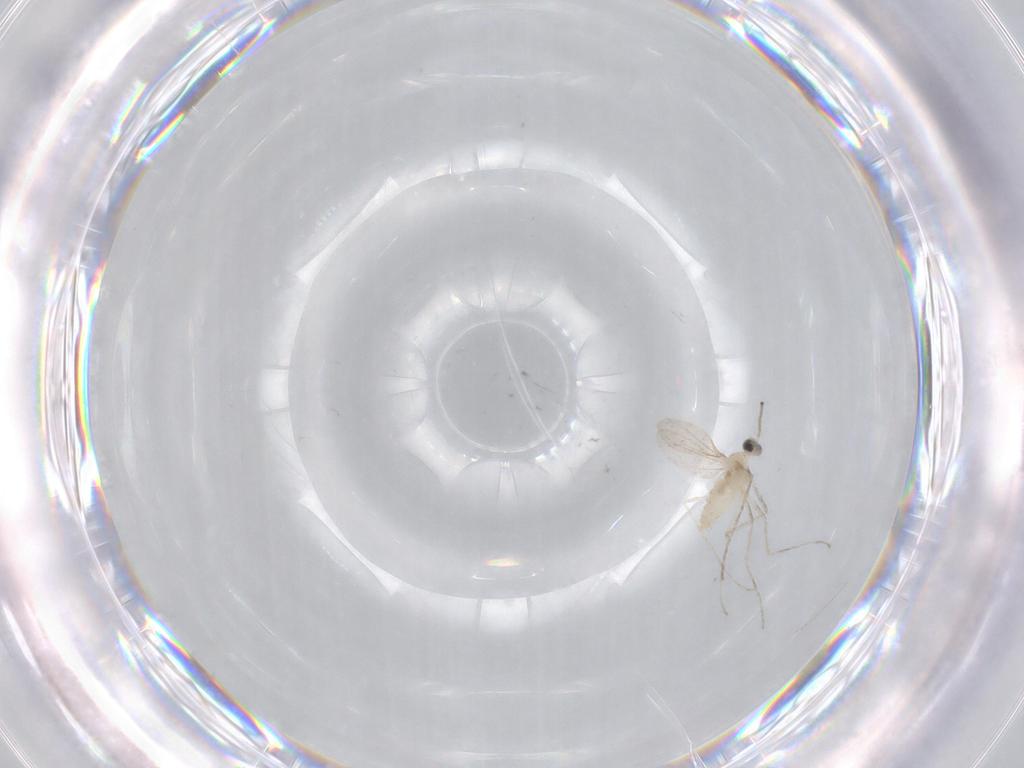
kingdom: Animalia
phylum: Arthropoda
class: Insecta
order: Diptera
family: Cecidomyiidae
